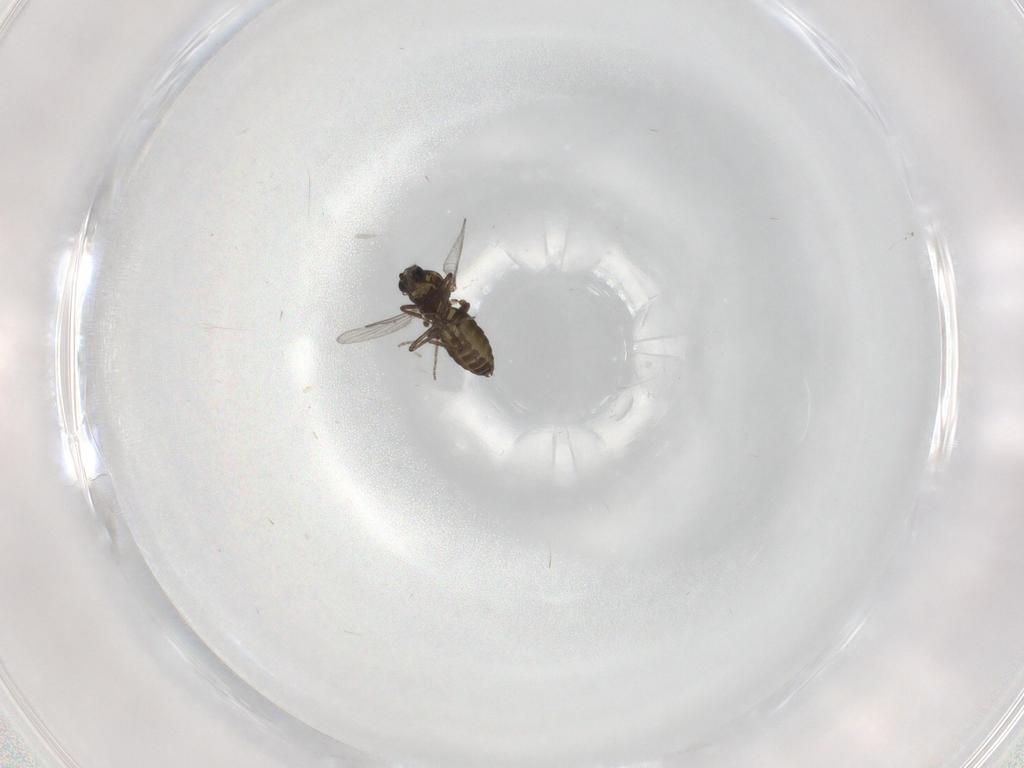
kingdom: Animalia
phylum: Arthropoda
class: Insecta
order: Diptera
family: Ceratopogonidae
